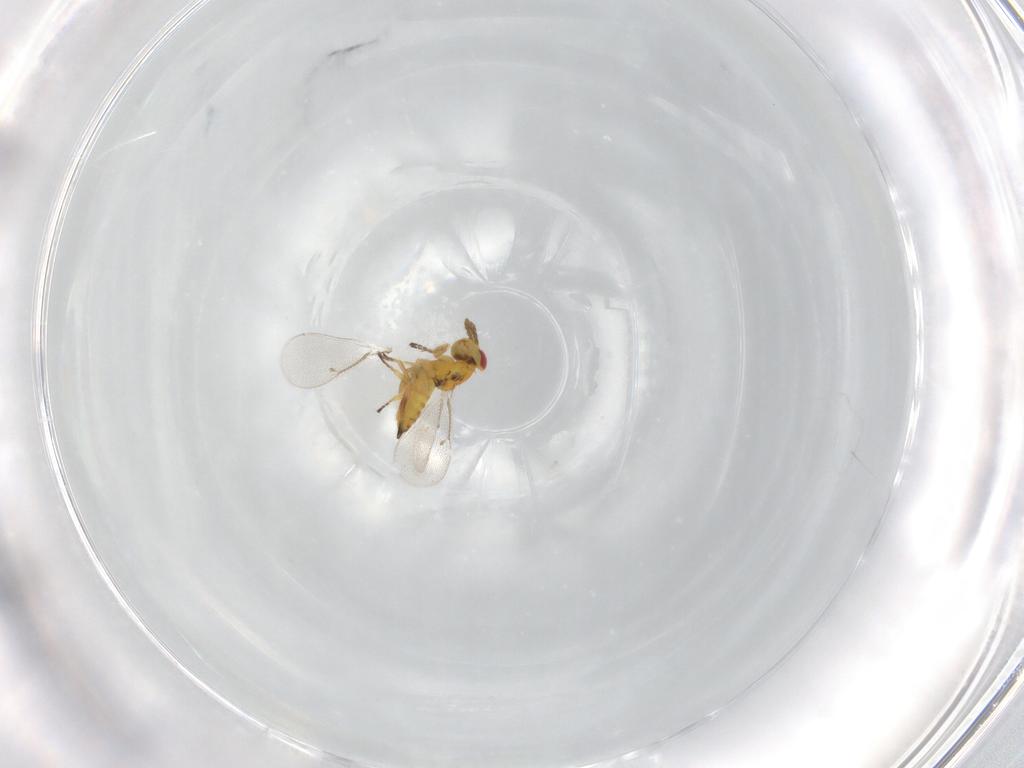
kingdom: Animalia
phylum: Arthropoda
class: Insecta
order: Hymenoptera
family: Eulophidae
